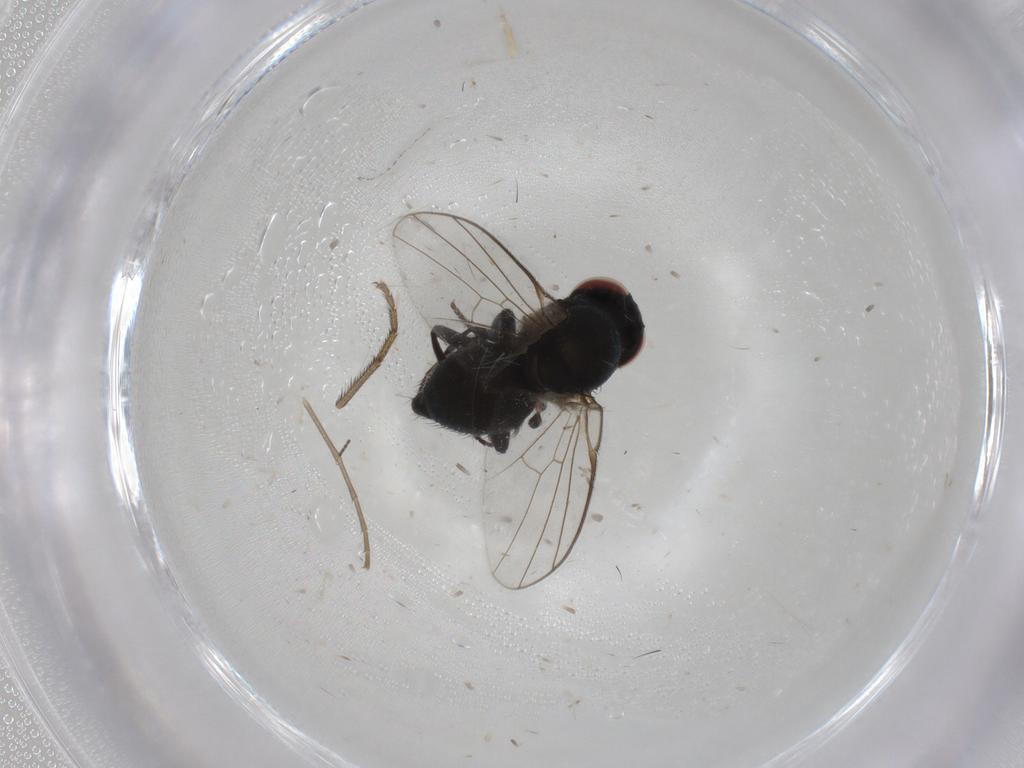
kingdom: Animalia
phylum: Arthropoda
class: Insecta
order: Diptera
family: Agromyzidae
